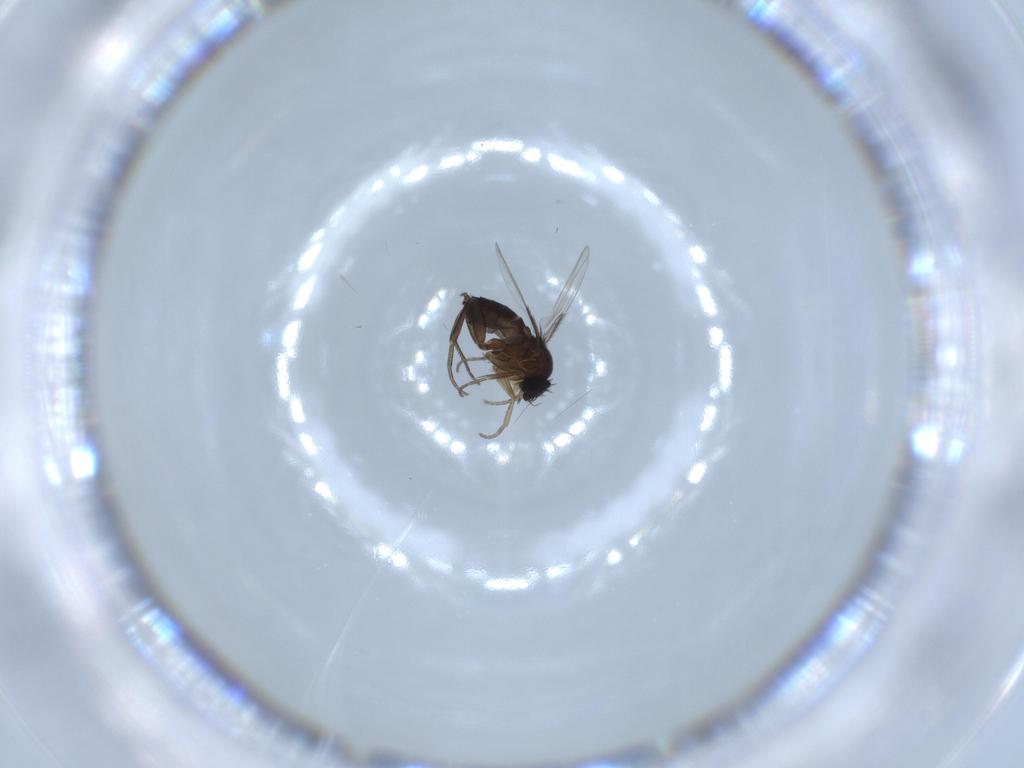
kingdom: Animalia
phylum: Arthropoda
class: Insecta
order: Diptera
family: Phoridae
